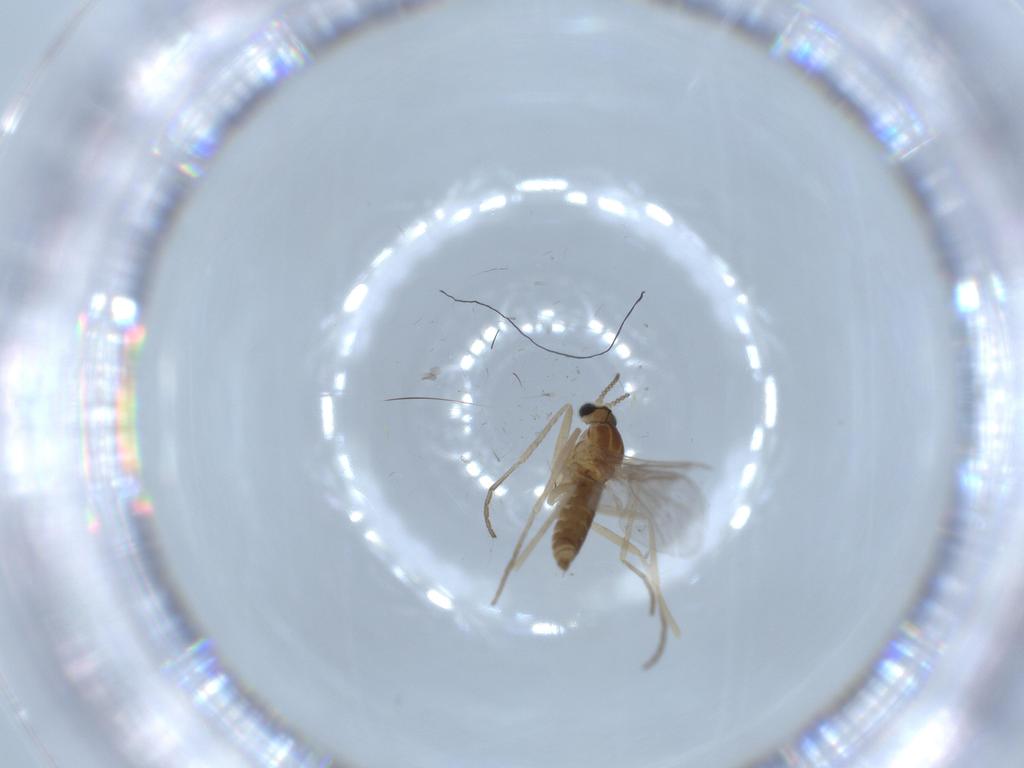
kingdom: Animalia
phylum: Arthropoda
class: Insecta
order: Diptera
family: Cecidomyiidae
